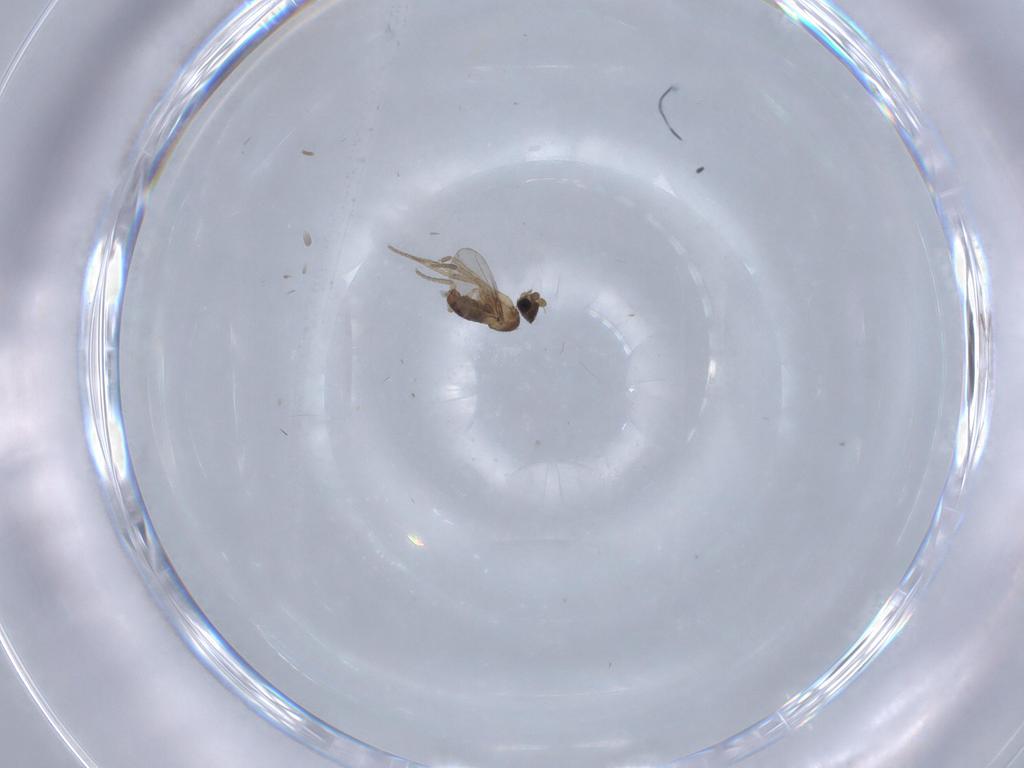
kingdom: Animalia
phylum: Arthropoda
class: Insecta
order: Diptera
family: Phoridae
